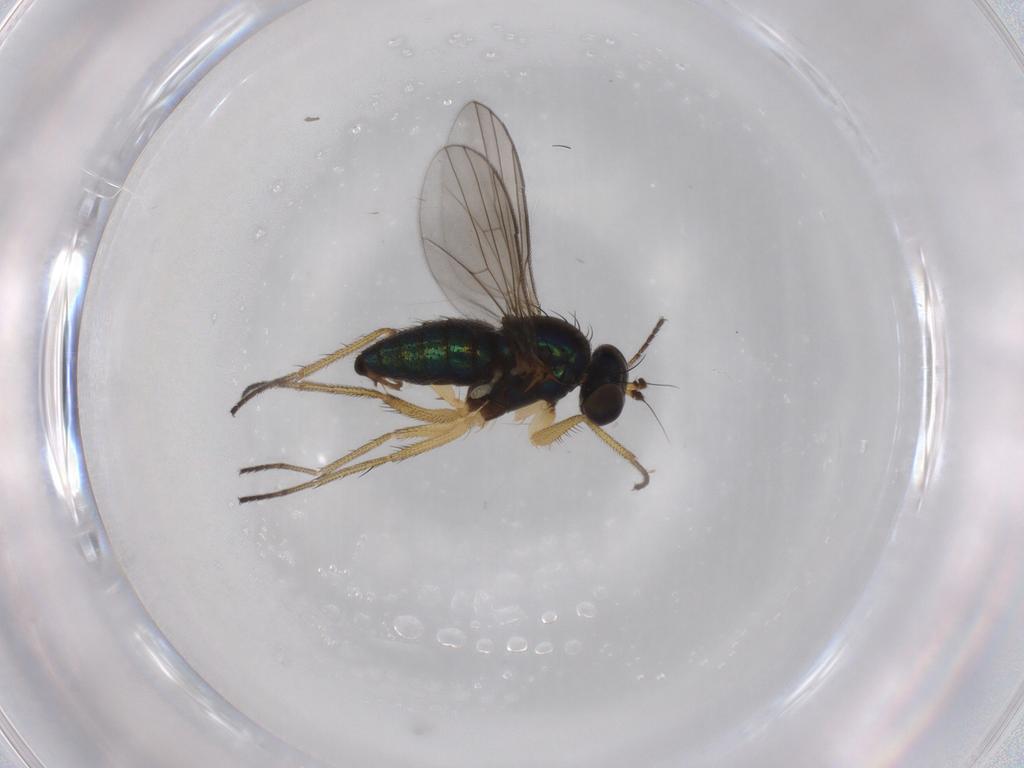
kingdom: Animalia
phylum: Arthropoda
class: Insecta
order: Diptera
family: Dolichopodidae
